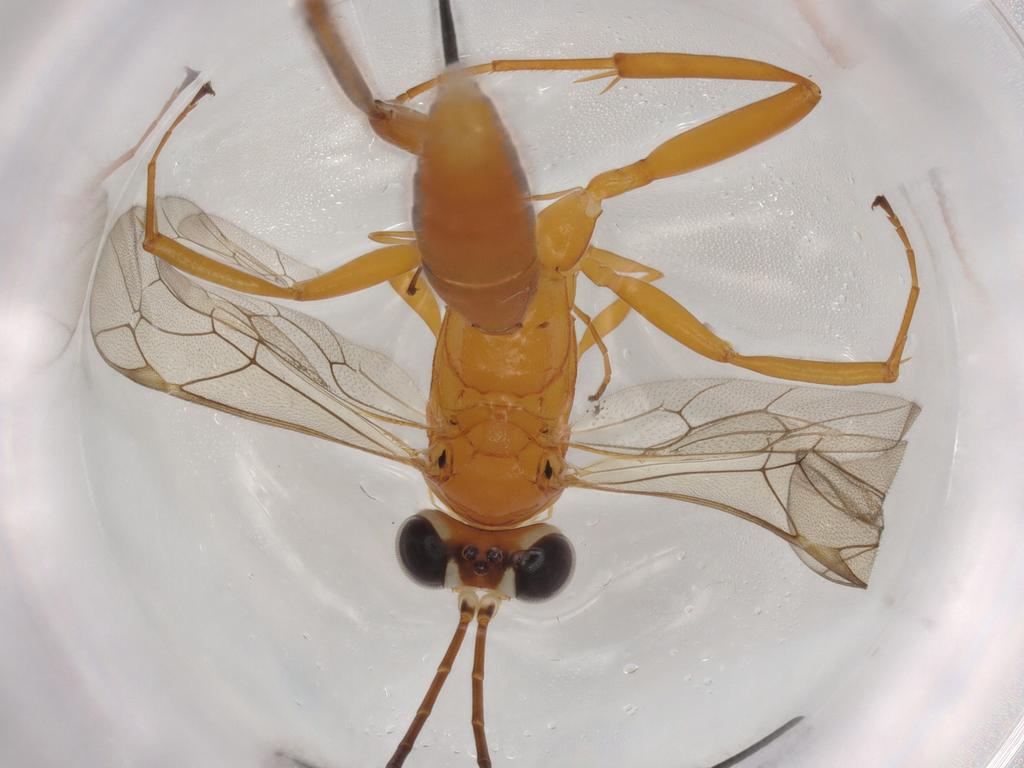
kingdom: Animalia
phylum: Arthropoda
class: Insecta
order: Hymenoptera
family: Ichneumonidae
